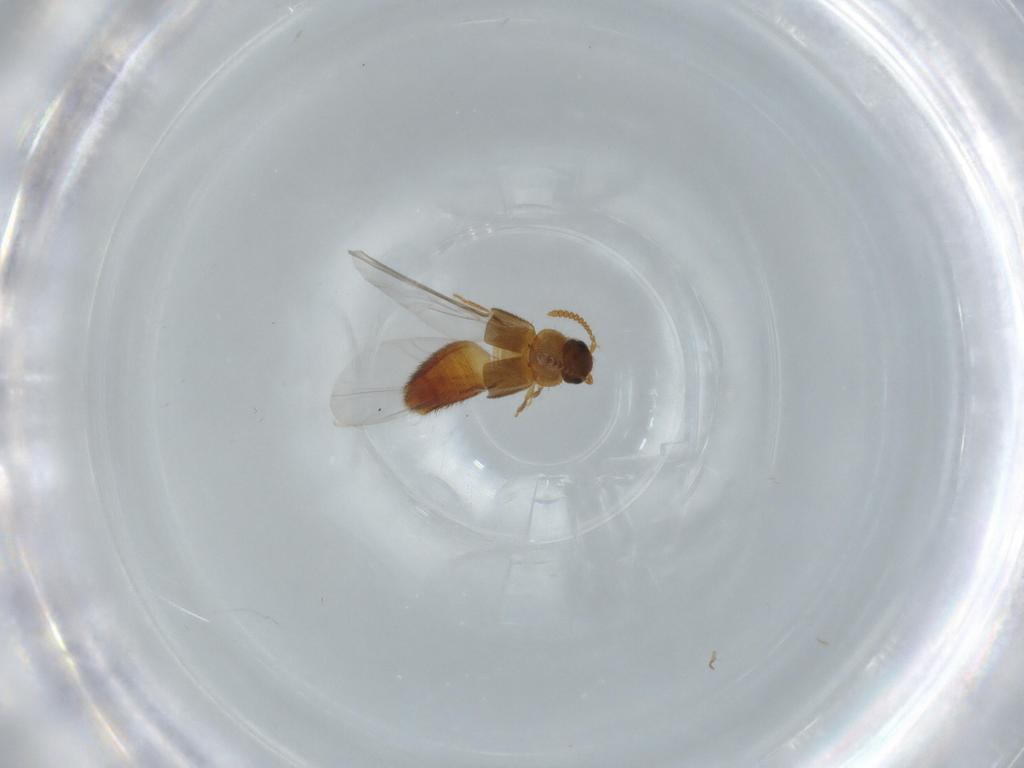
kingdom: Animalia
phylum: Arthropoda
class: Insecta
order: Coleoptera
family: Staphylinidae
